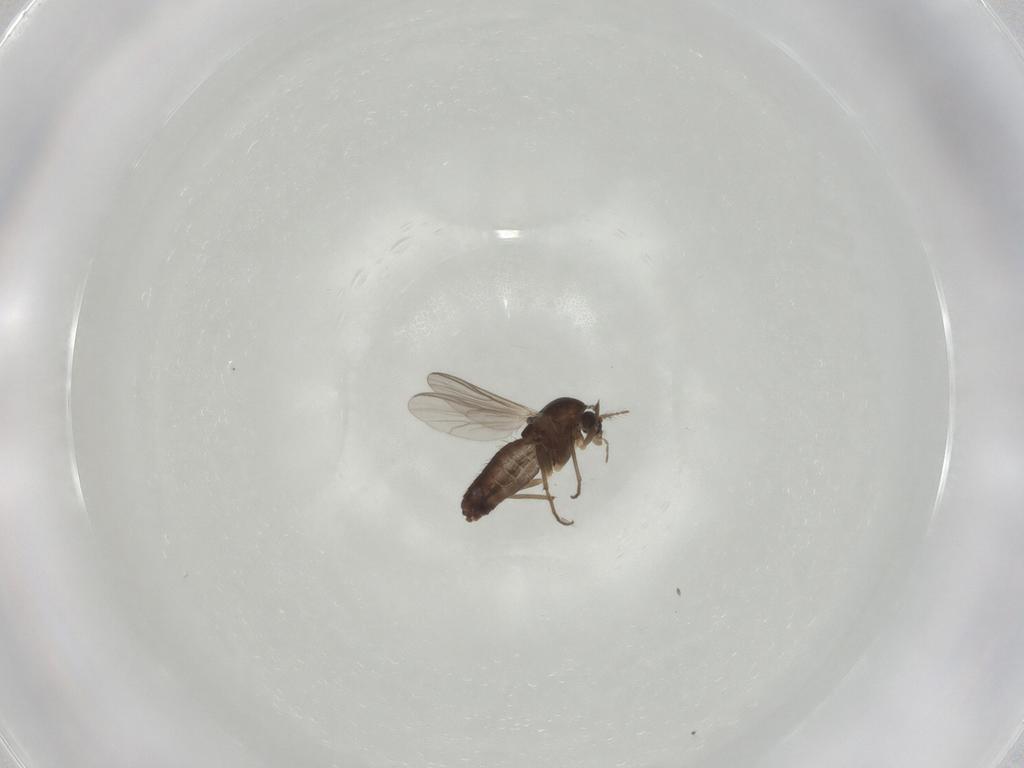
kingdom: Animalia
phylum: Arthropoda
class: Insecta
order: Diptera
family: Chironomidae
